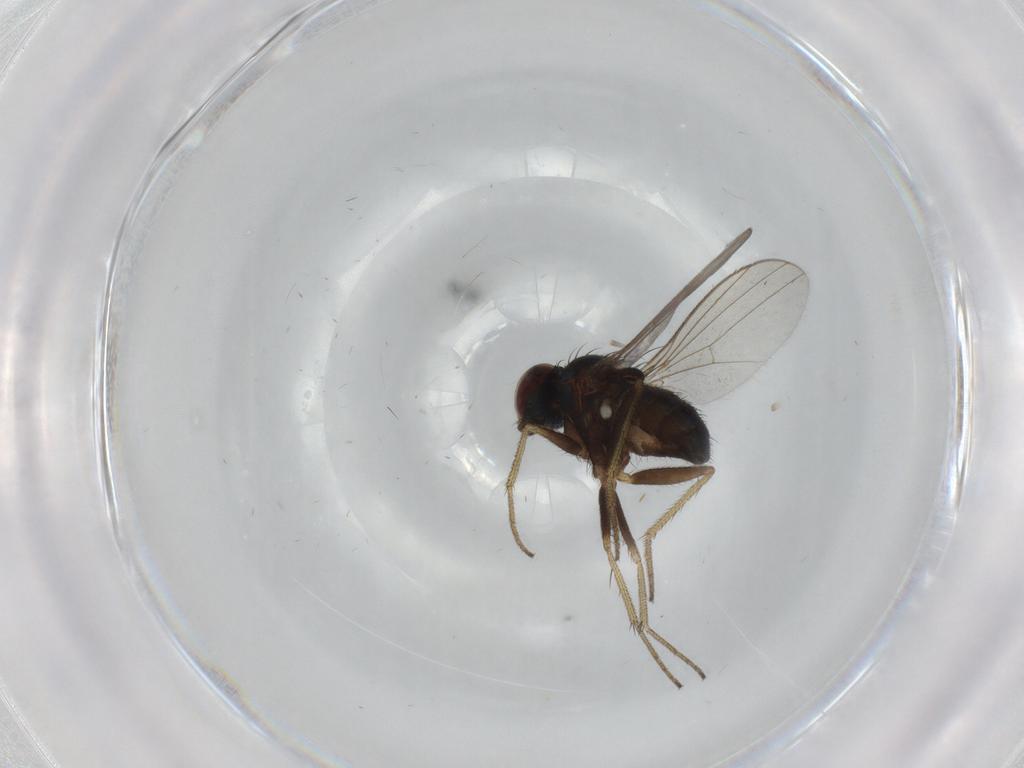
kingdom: Animalia
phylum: Arthropoda
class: Insecta
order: Diptera
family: Dolichopodidae
